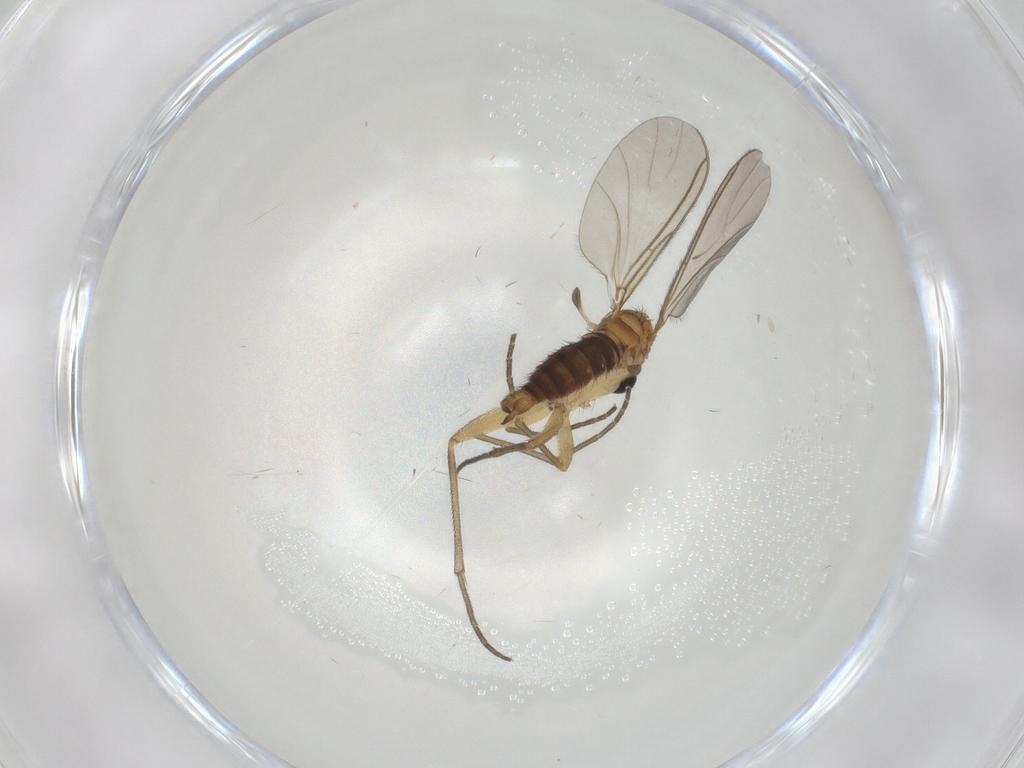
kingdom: Animalia
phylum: Arthropoda
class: Insecta
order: Diptera
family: Sciaridae
